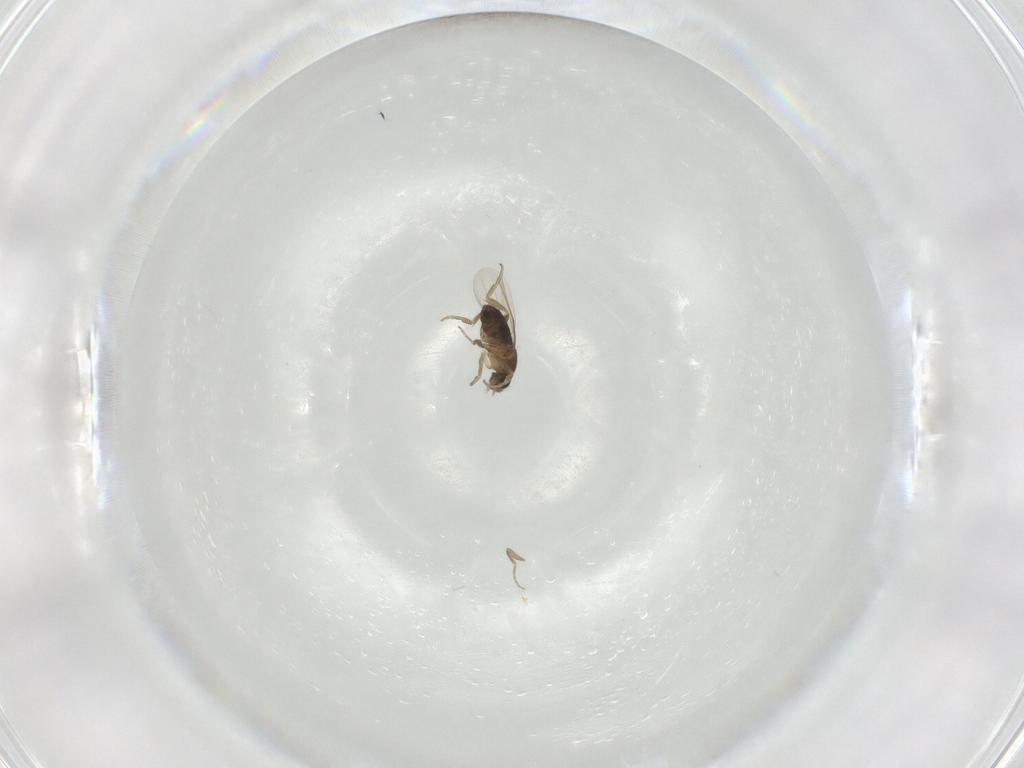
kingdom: Animalia
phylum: Arthropoda
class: Insecta
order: Diptera
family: Phoridae
